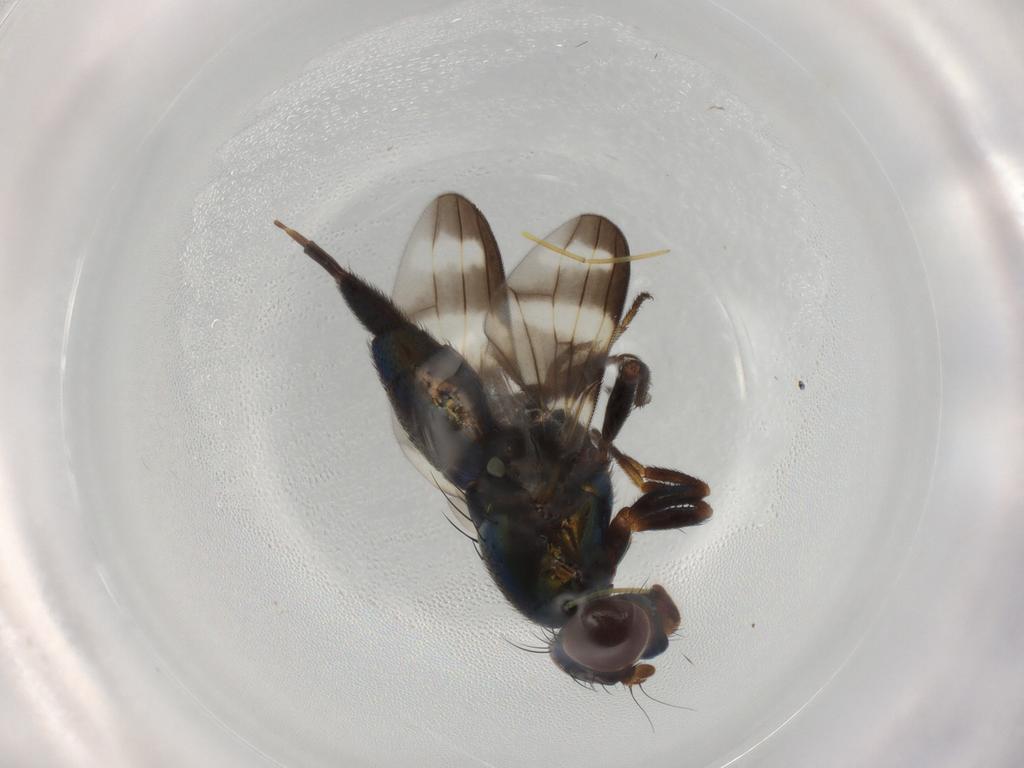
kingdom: Animalia
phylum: Arthropoda
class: Insecta
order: Diptera
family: Cecidomyiidae
